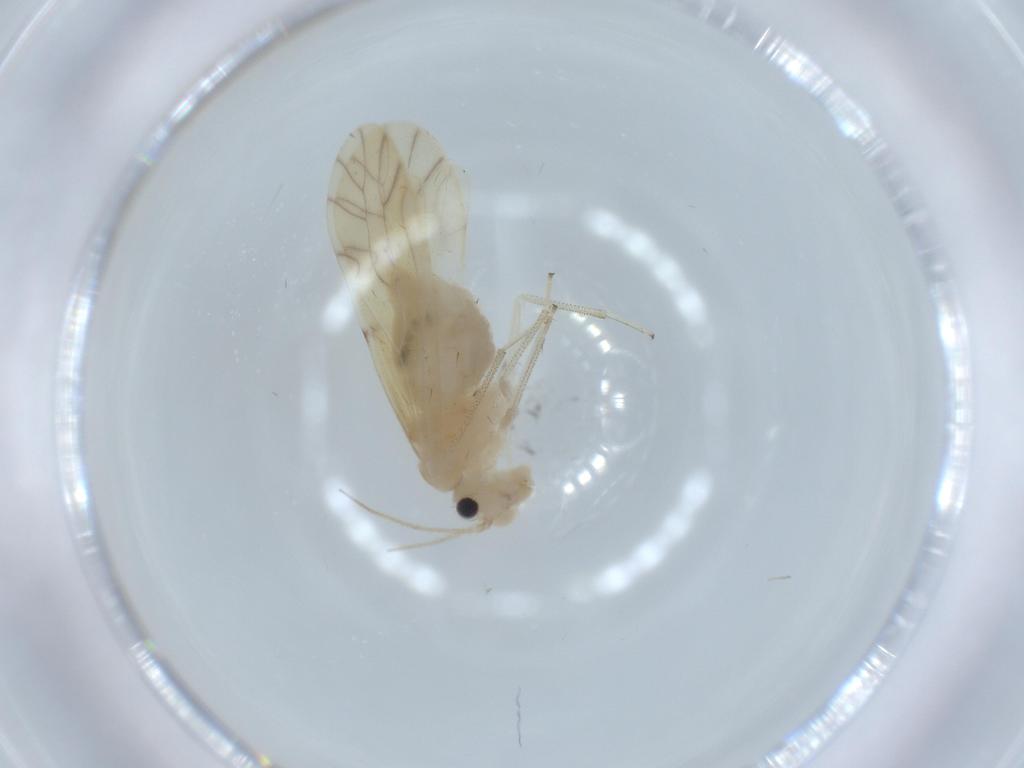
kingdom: Animalia
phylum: Arthropoda
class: Insecta
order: Psocodea
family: Caeciliusidae
